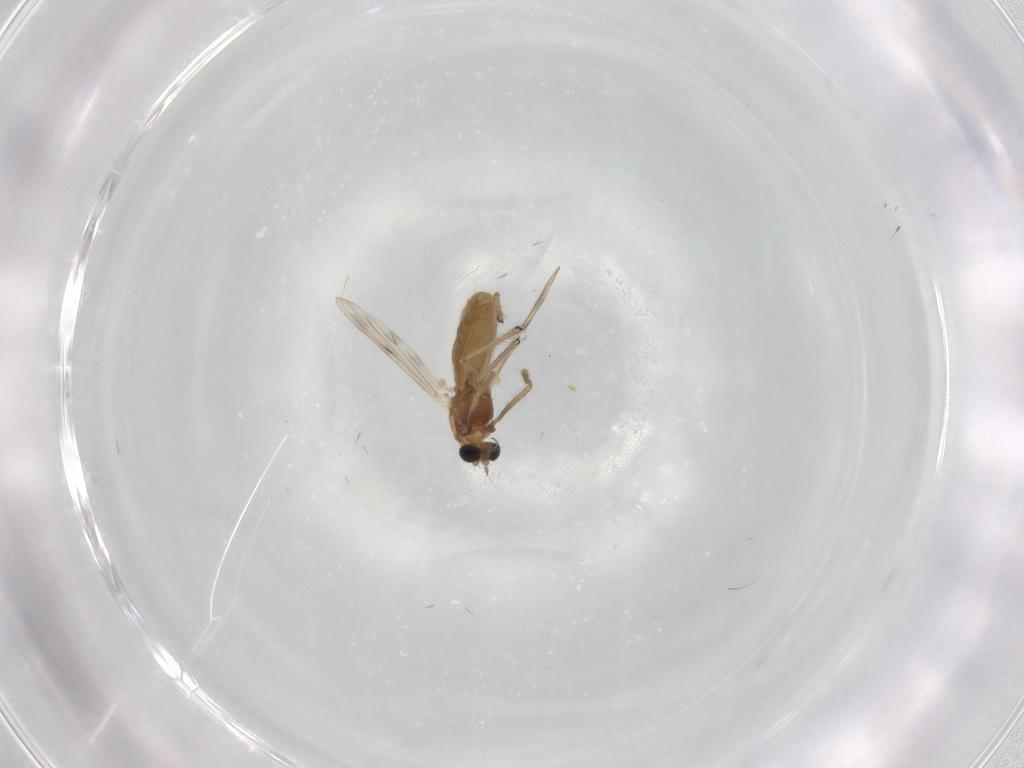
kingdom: Animalia
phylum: Arthropoda
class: Insecta
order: Diptera
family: Chironomidae
